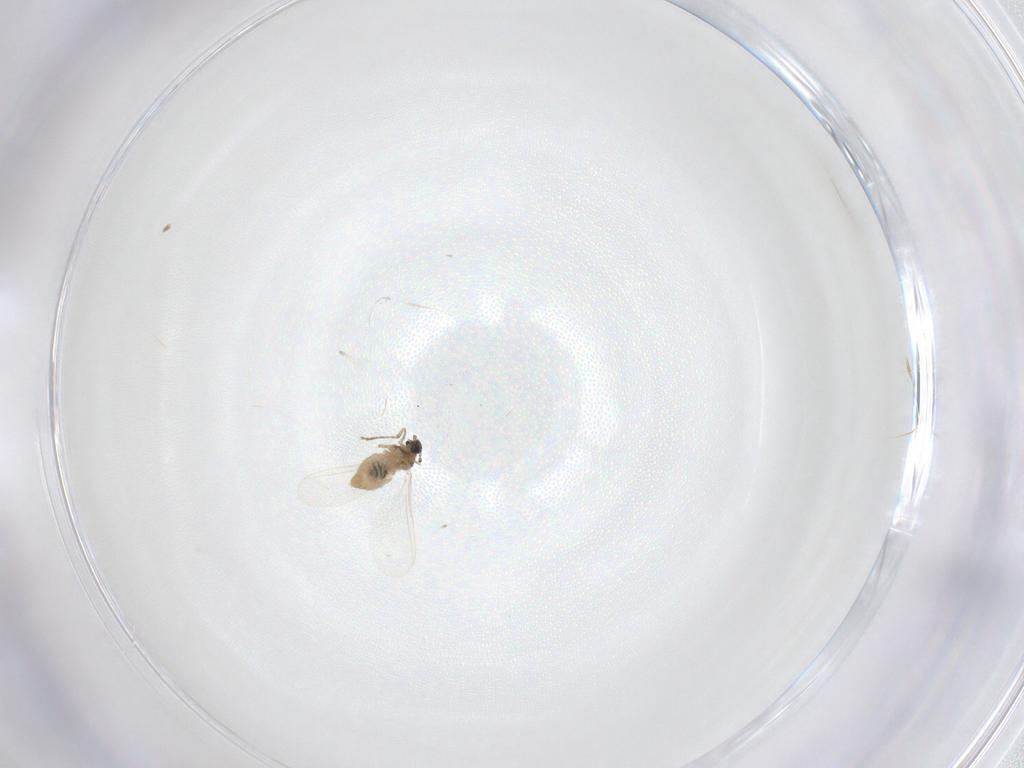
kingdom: Animalia
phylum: Arthropoda
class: Insecta
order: Diptera
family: Cecidomyiidae
